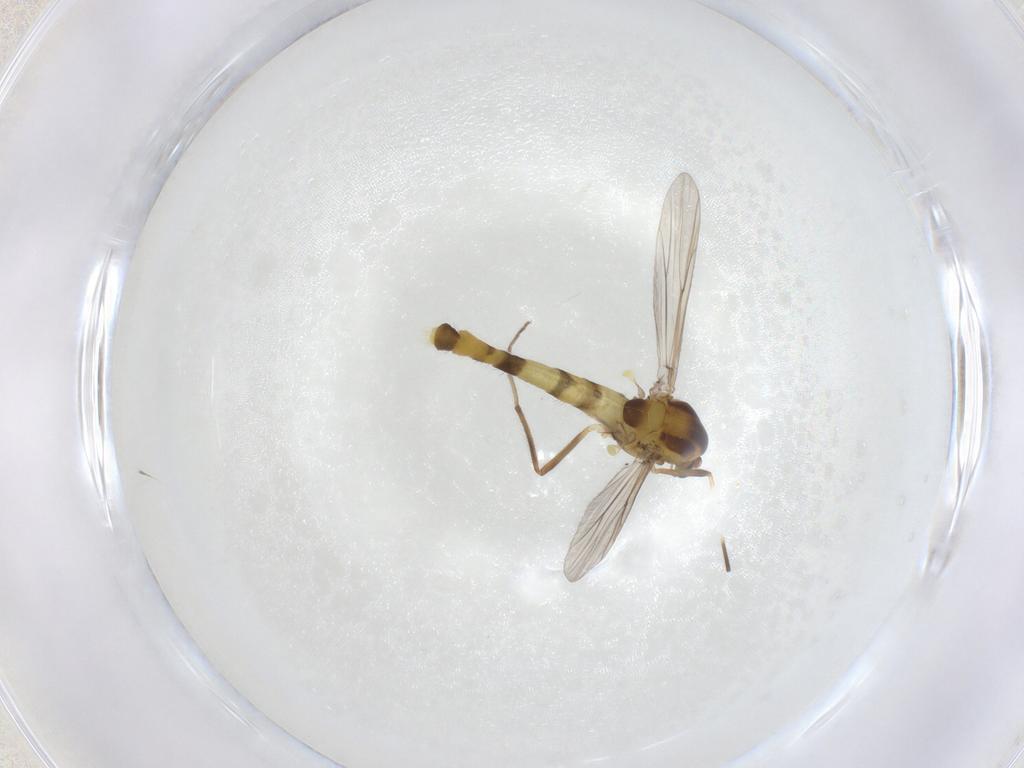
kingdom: Animalia
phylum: Arthropoda
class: Insecta
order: Diptera
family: Chironomidae
